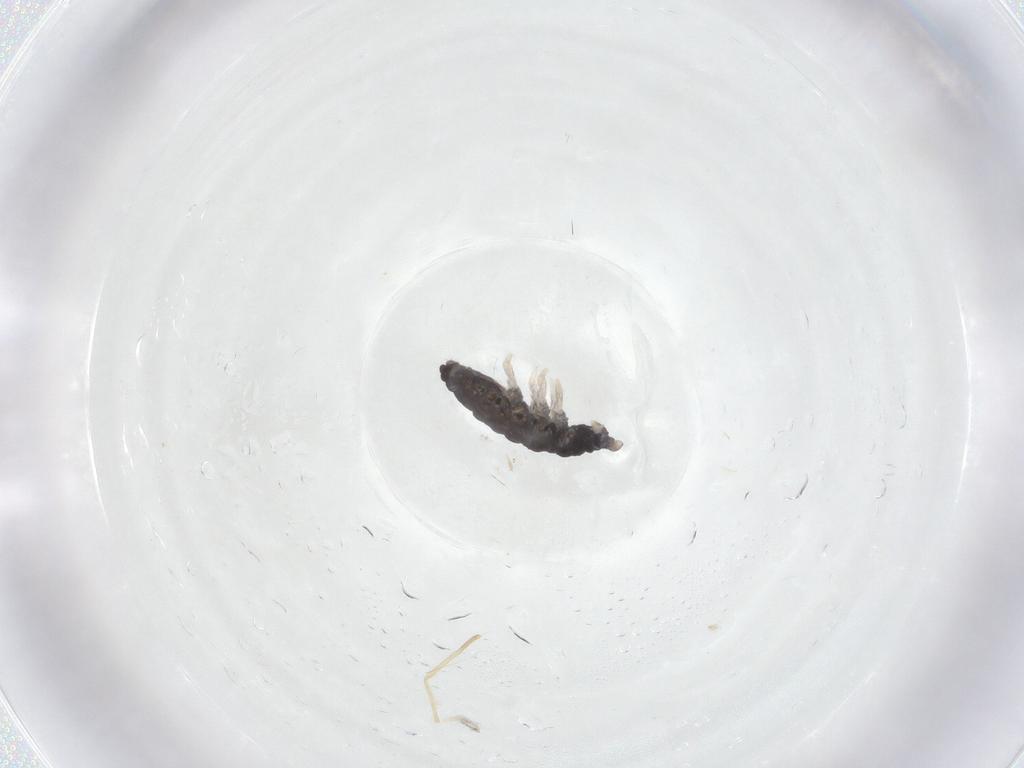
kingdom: Animalia
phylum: Arthropoda
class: Collembola
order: Poduromorpha
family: Neanuridae
